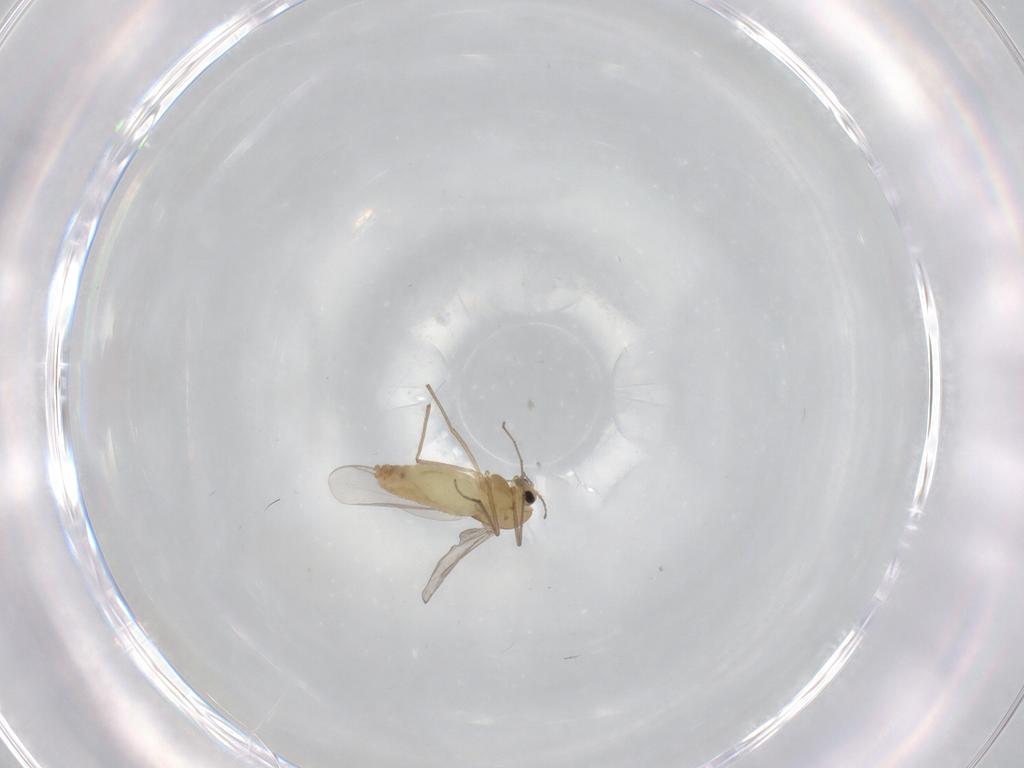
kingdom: Animalia
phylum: Arthropoda
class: Insecta
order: Diptera
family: Chironomidae
